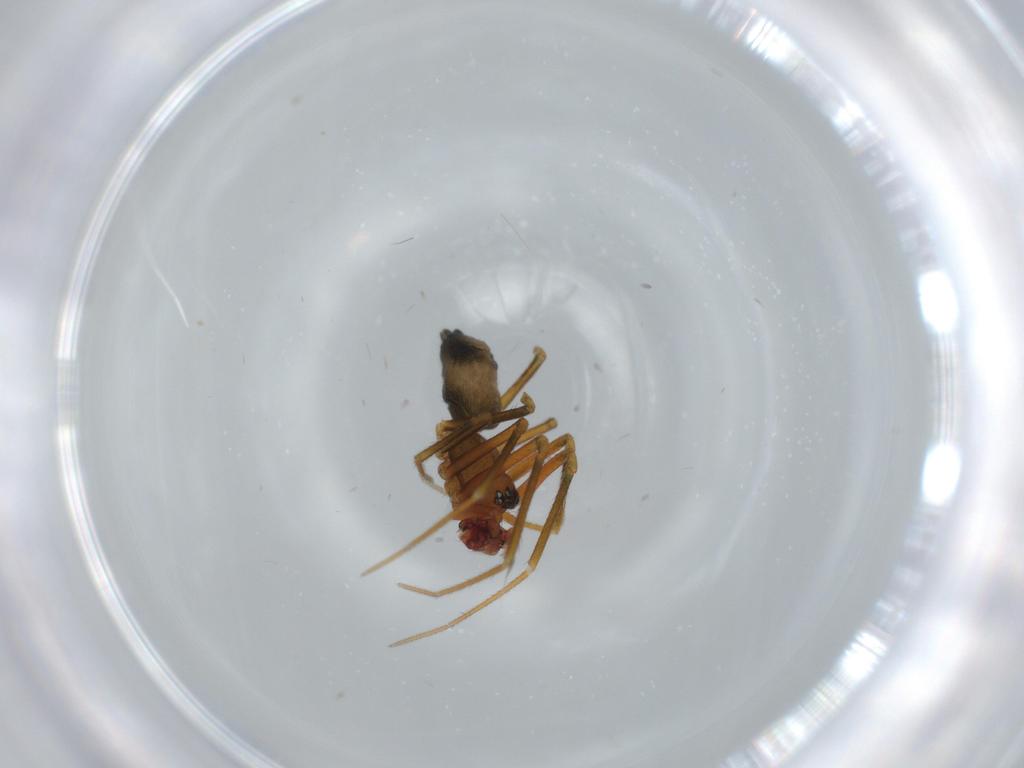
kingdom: Animalia
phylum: Arthropoda
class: Arachnida
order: Araneae
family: Linyphiidae
